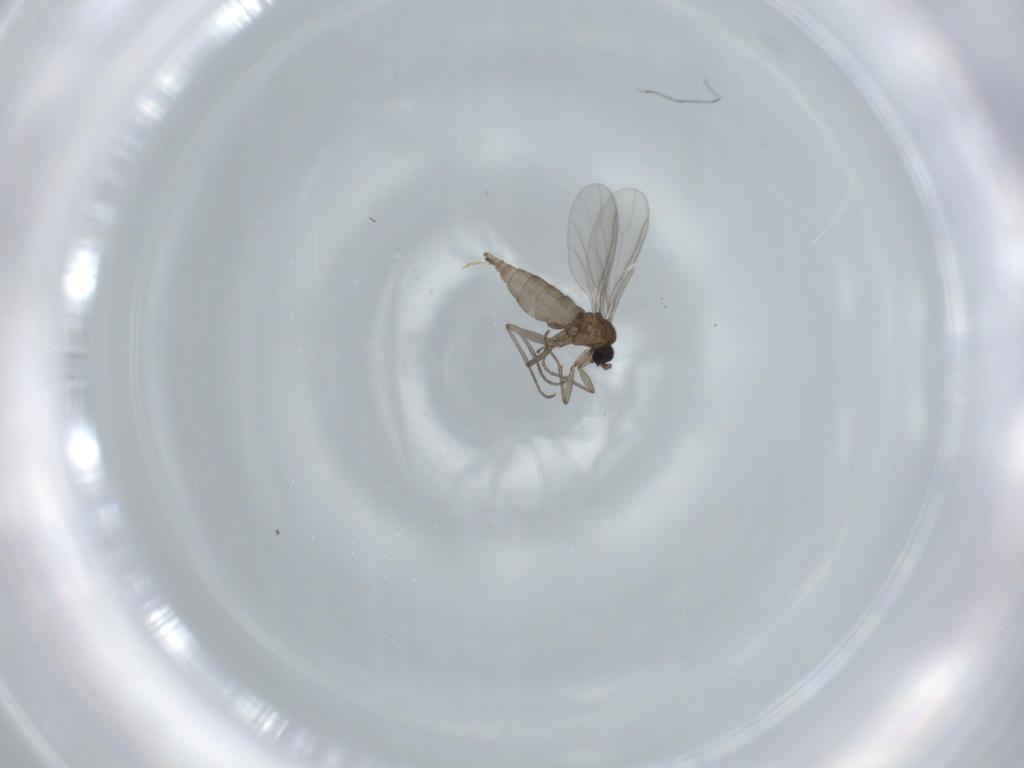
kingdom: Animalia
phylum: Arthropoda
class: Insecta
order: Diptera
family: Sciaridae
